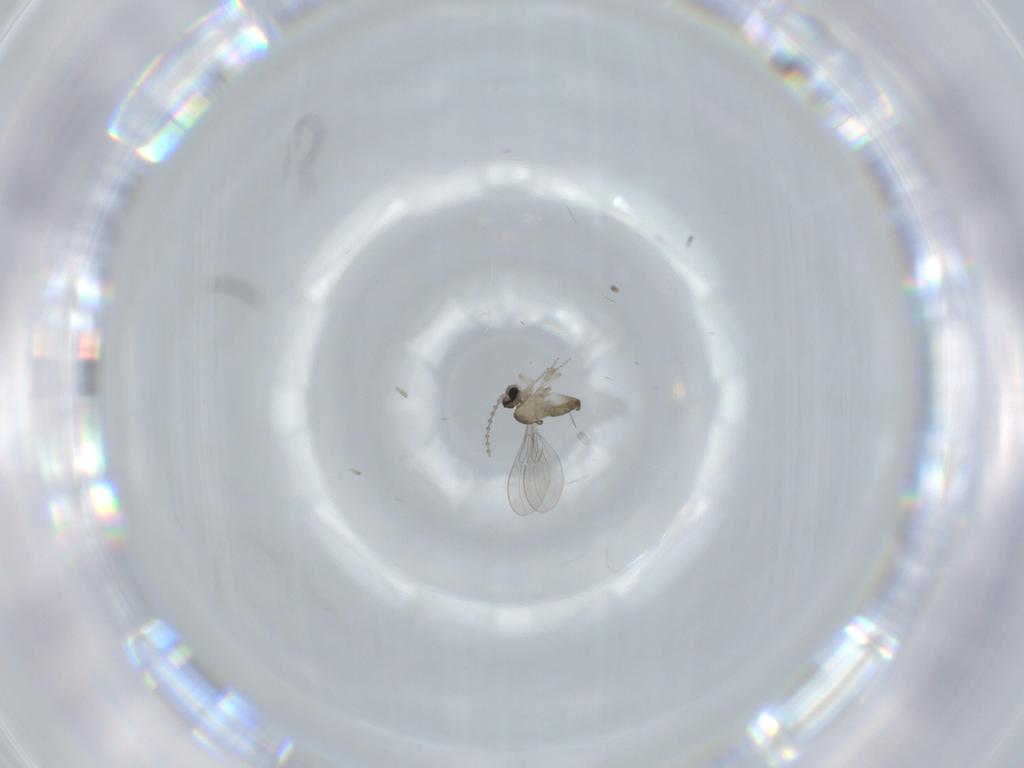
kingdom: Animalia
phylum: Arthropoda
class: Insecta
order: Diptera
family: Cecidomyiidae
